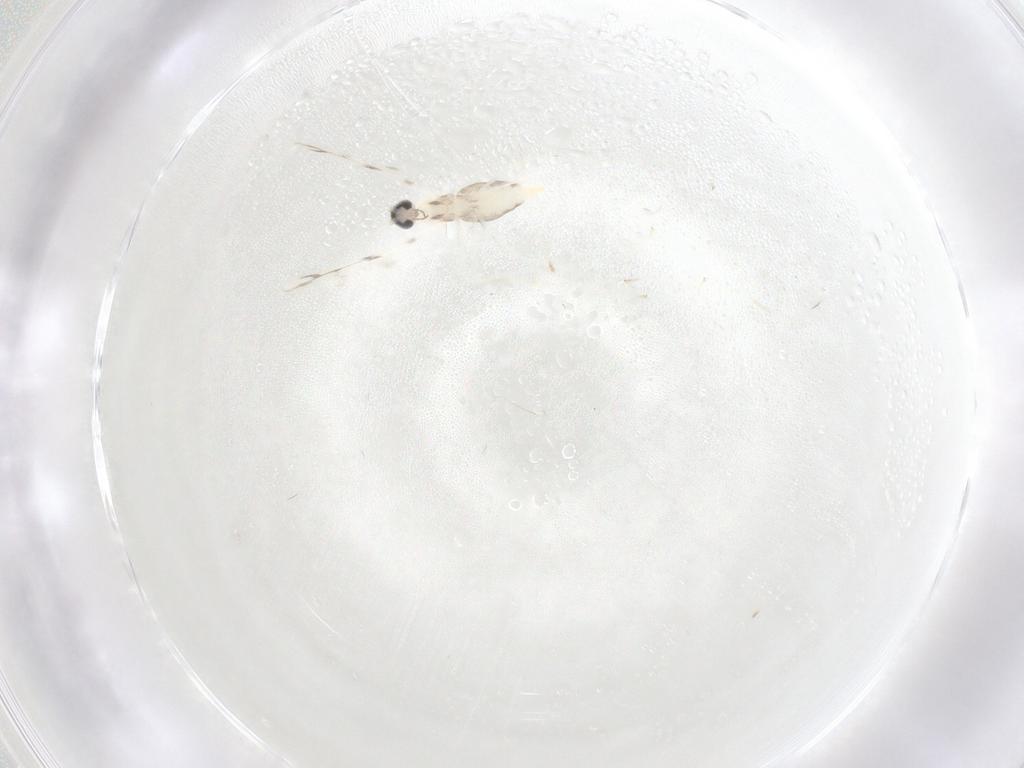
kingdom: Animalia
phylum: Arthropoda
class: Insecta
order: Diptera
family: Cecidomyiidae
